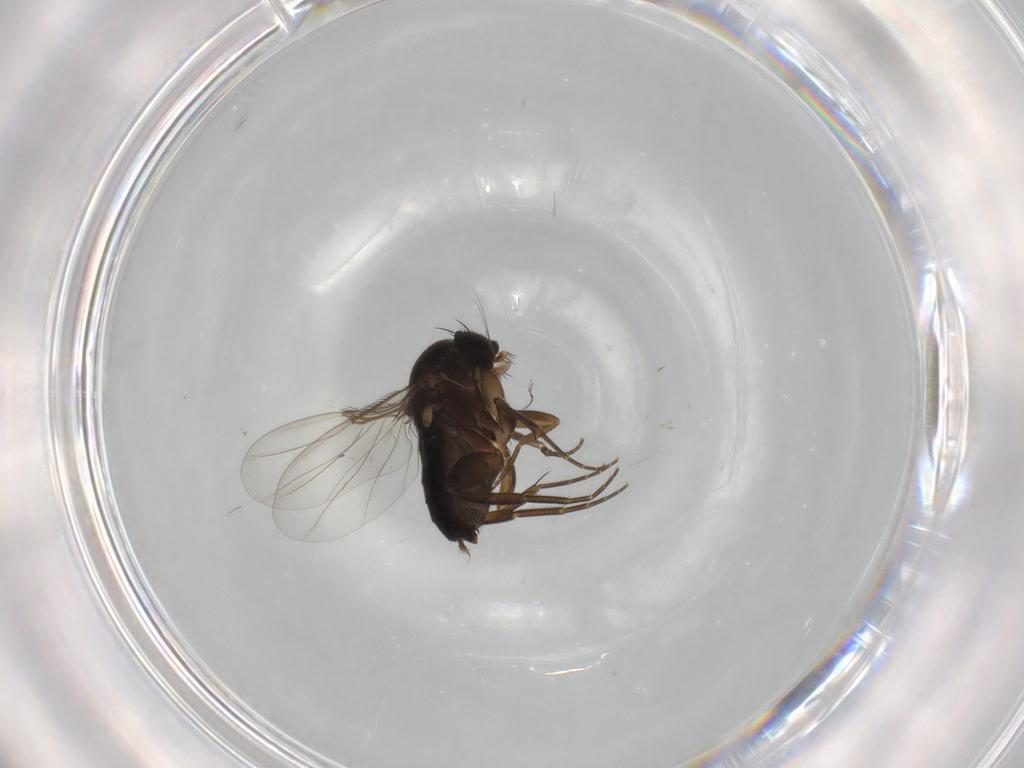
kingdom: Animalia
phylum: Arthropoda
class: Insecta
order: Diptera
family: Phoridae
